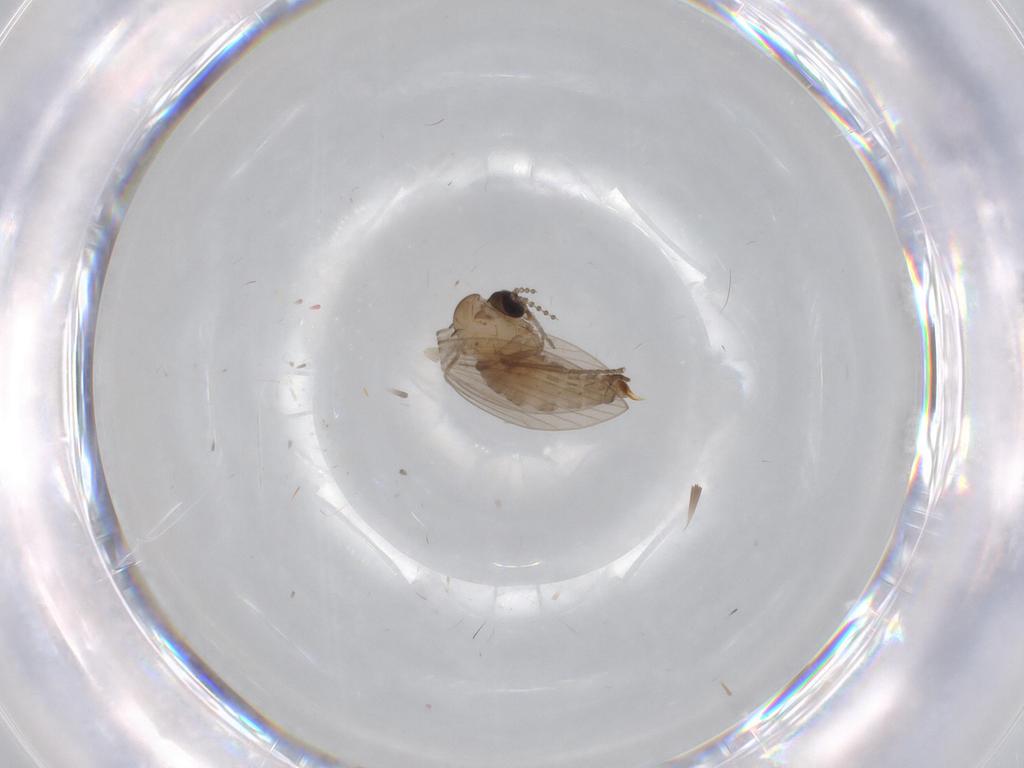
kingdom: Animalia
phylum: Arthropoda
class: Insecta
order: Diptera
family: Psychodidae
